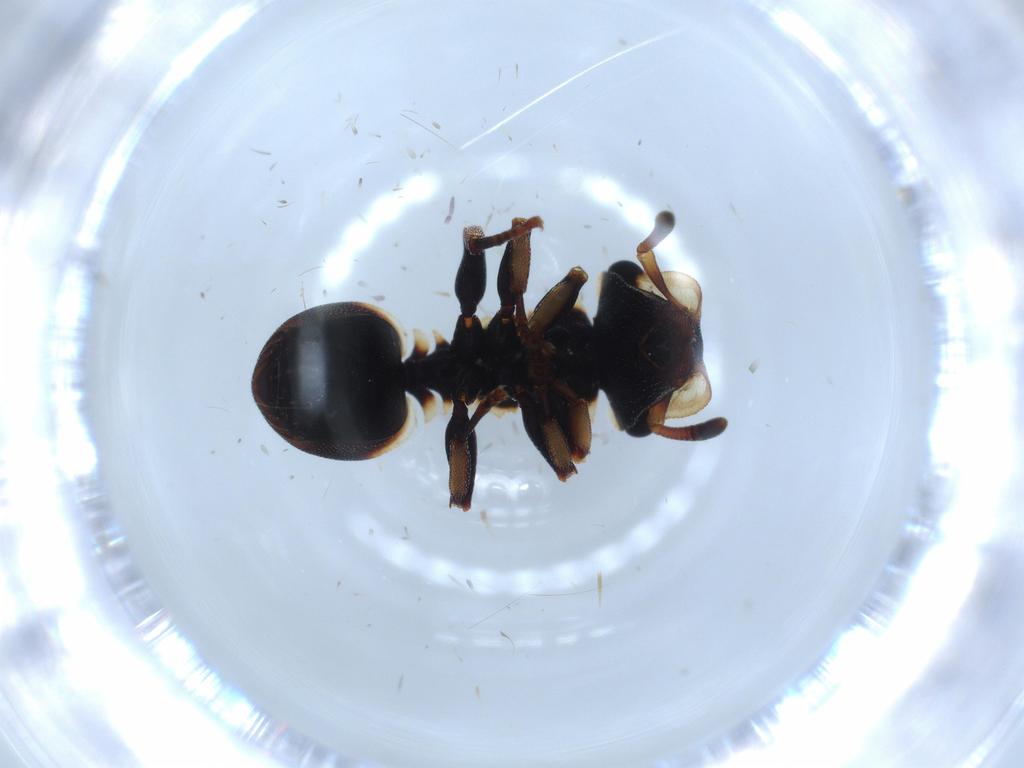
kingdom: Animalia
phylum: Arthropoda
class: Insecta
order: Hymenoptera
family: Formicidae
